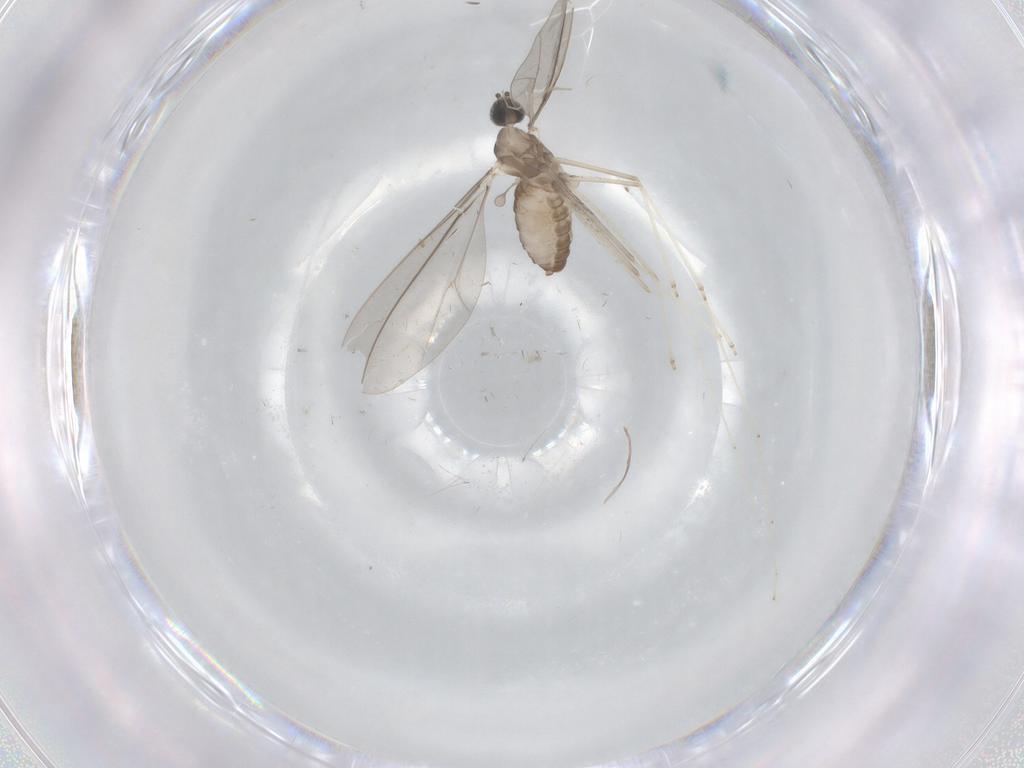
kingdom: Animalia
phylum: Arthropoda
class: Insecta
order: Diptera
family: Cecidomyiidae
